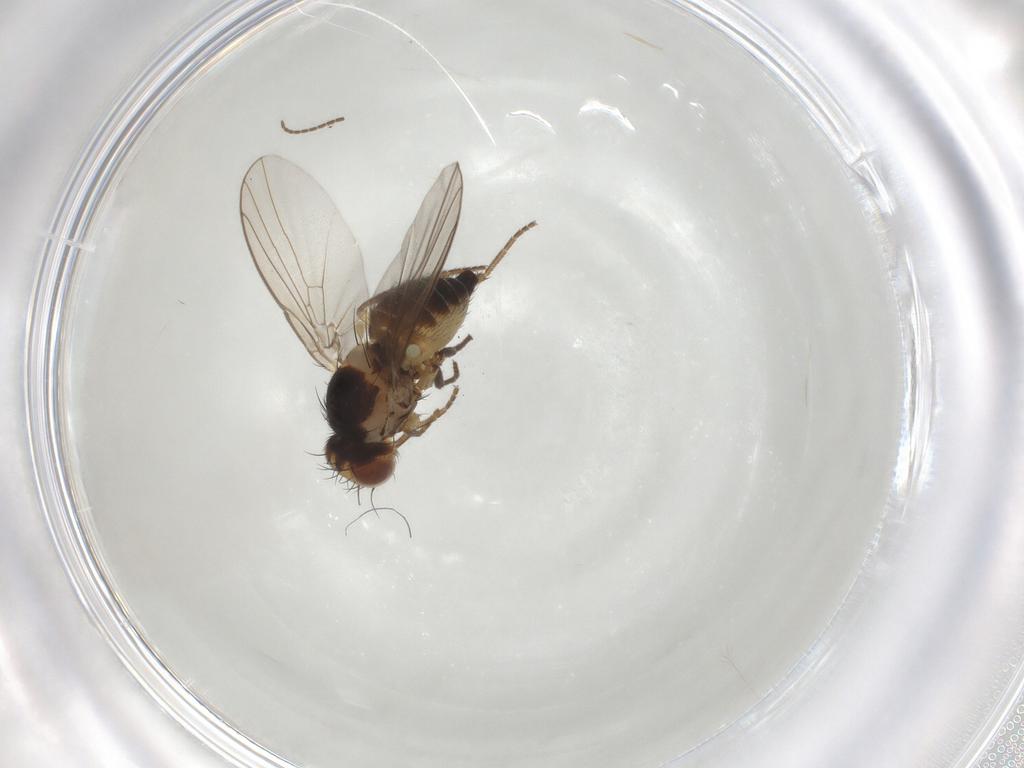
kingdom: Animalia
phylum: Arthropoda
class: Insecta
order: Diptera
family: Agromyzidae
